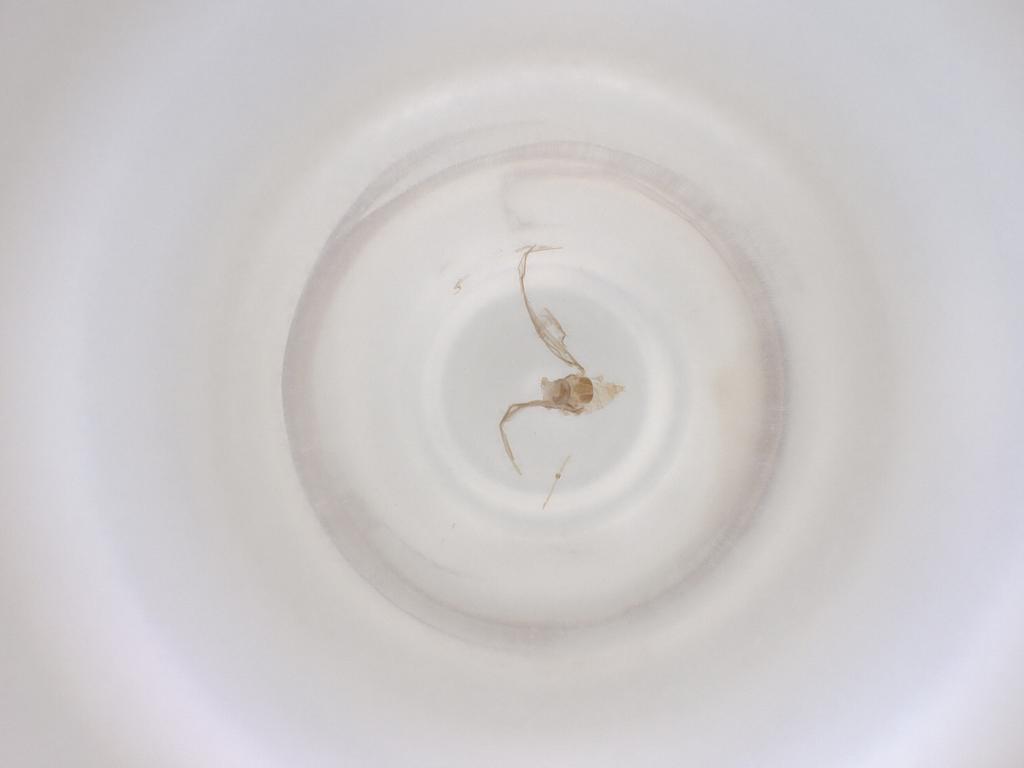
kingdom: Animalia
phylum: Arthropoda
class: Insecta
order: Diptera
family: Cecidomyiidae
